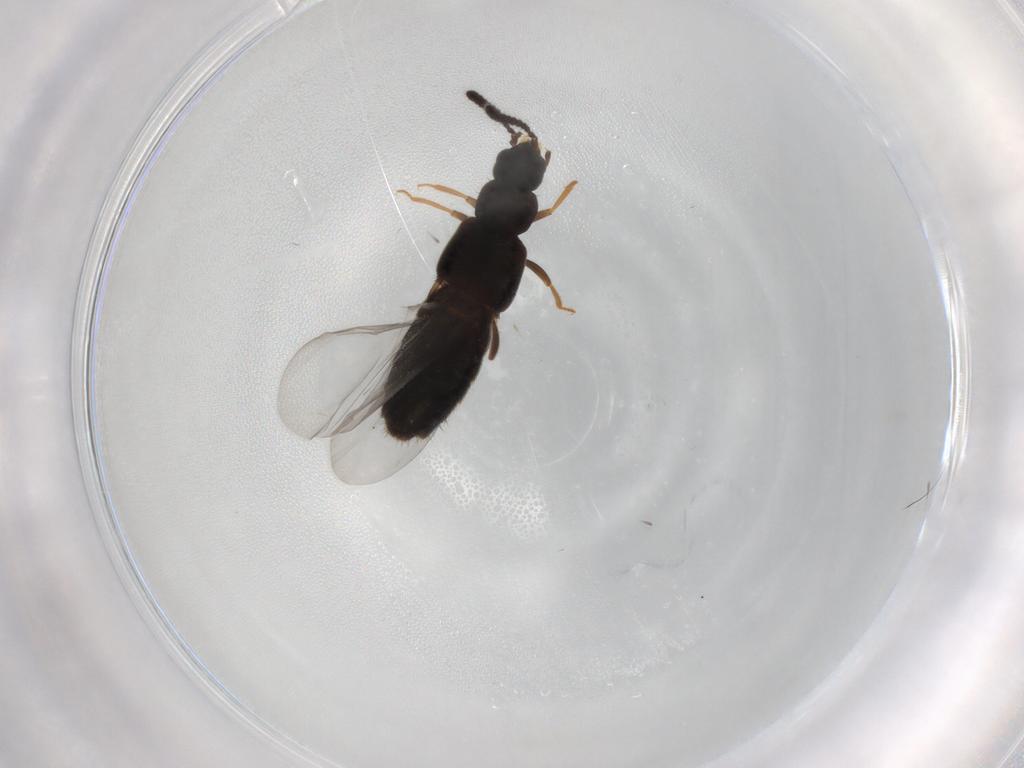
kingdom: Animalia
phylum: Arthropoda
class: Insecta
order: Coleoptera
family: Staphylinidae
